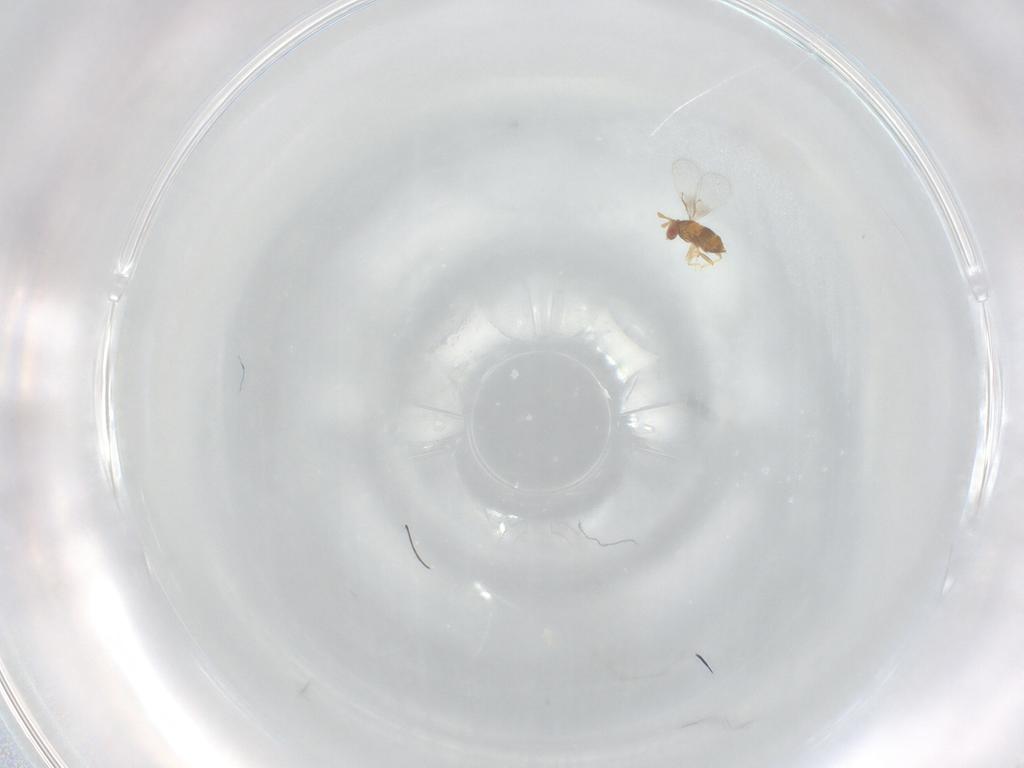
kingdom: Animalia
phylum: Arthropoda
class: Insecta
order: Hymenoptera
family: Trichogrammatidae
